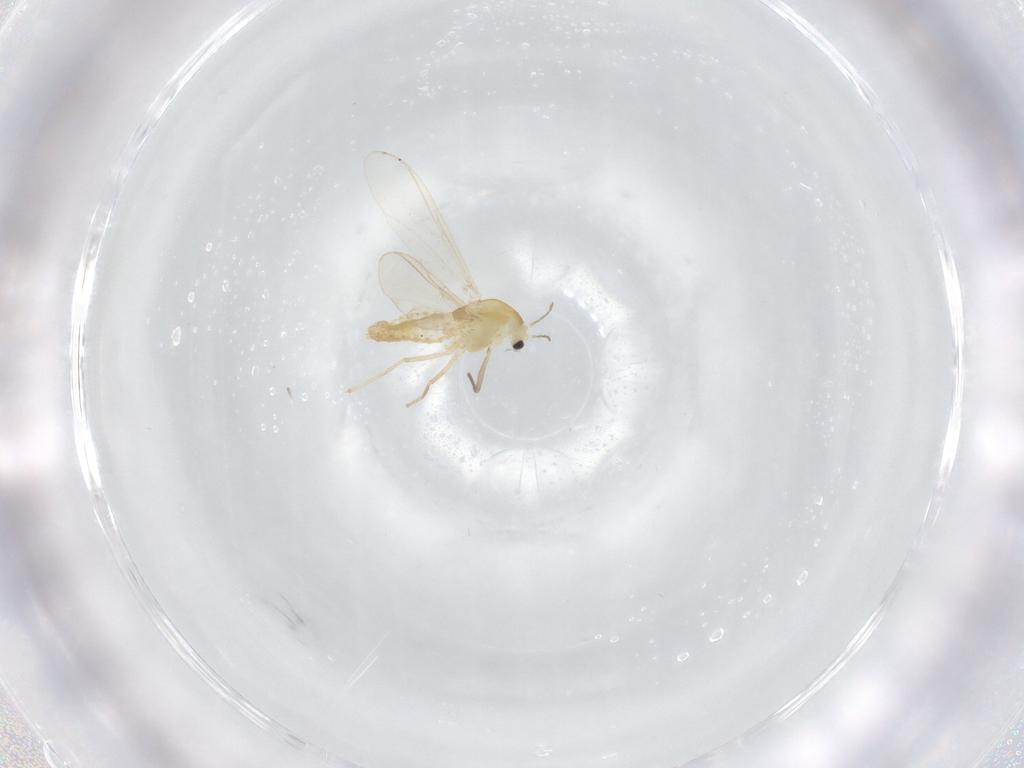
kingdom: Animalia
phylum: Arthropoda
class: Insecta
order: Diptera
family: Chironomidae
